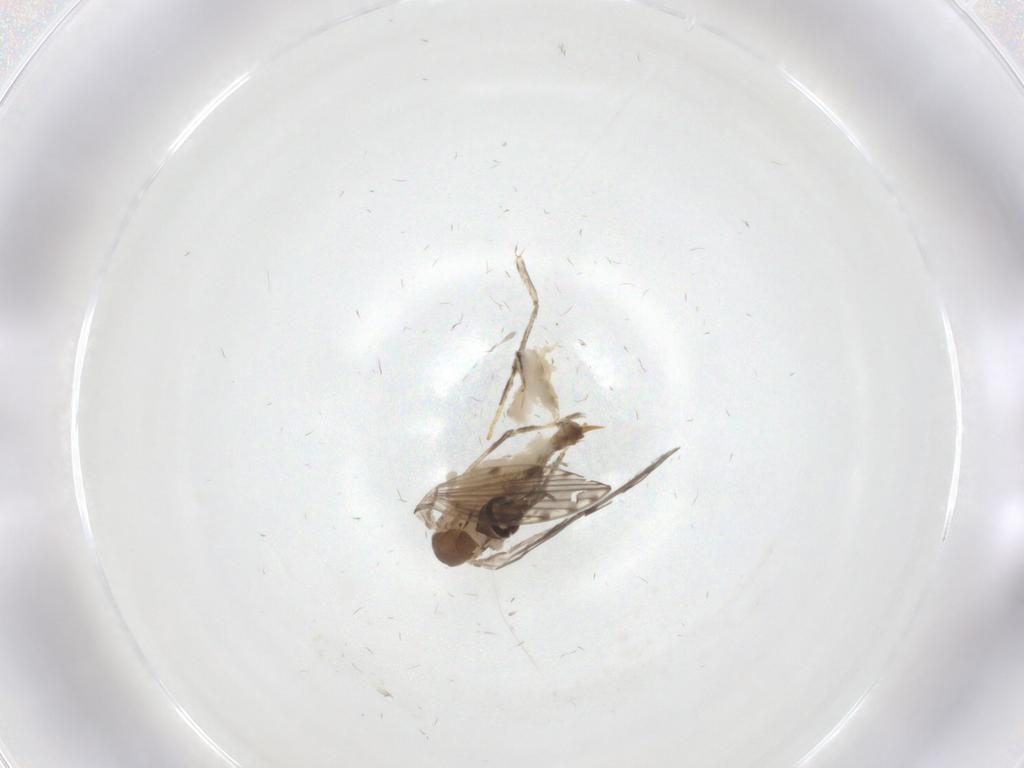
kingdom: Animalia
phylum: Arthropoda
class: Insecta
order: Diptera
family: Psychodidae
